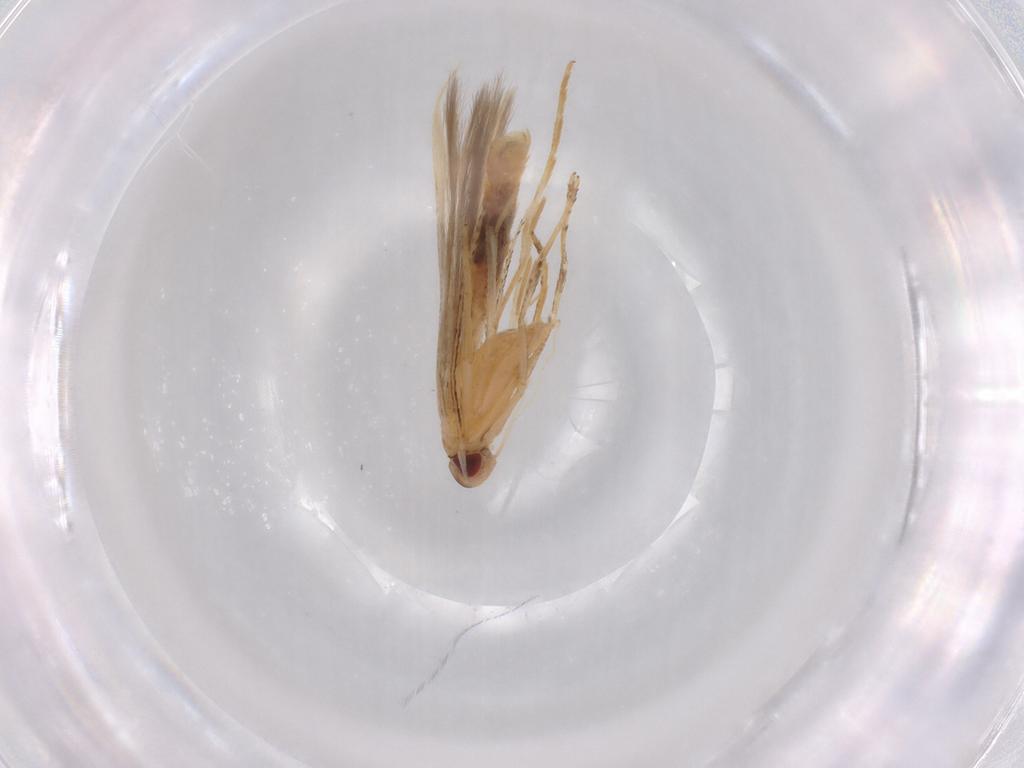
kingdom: Animalia
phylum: Arthropoda
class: Insecta
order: Lepidoptera
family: Cosmopterigidae
